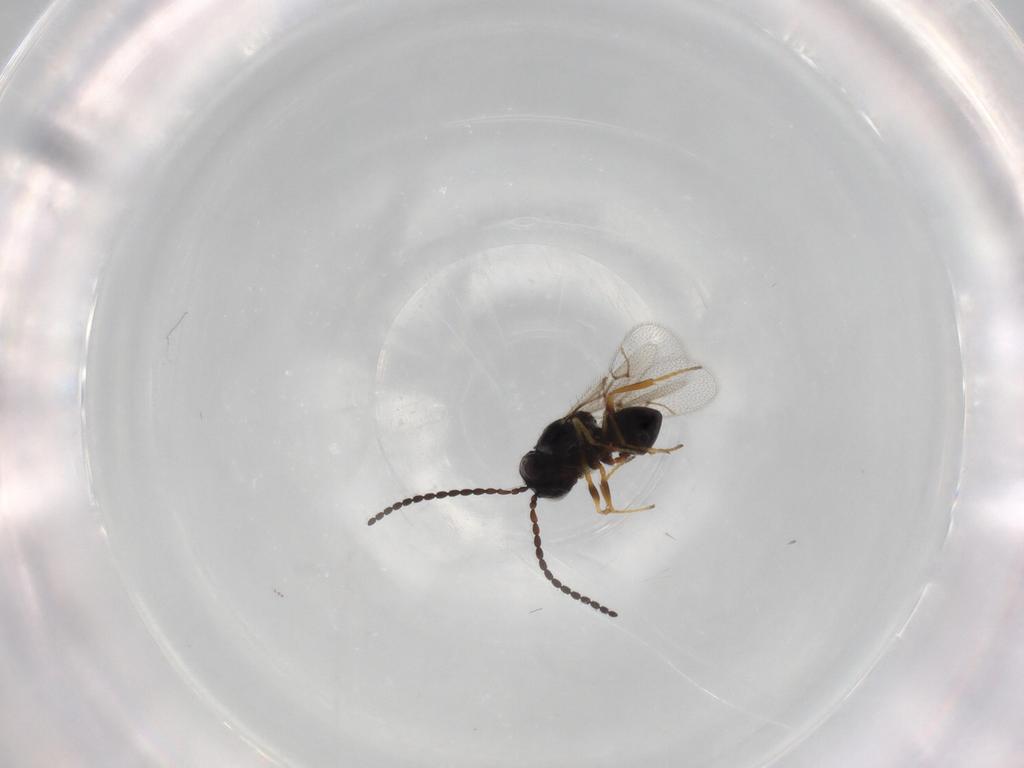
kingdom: Animalia
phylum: Arthropoda
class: Insecta
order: Hymenoptera
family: Figitidae
